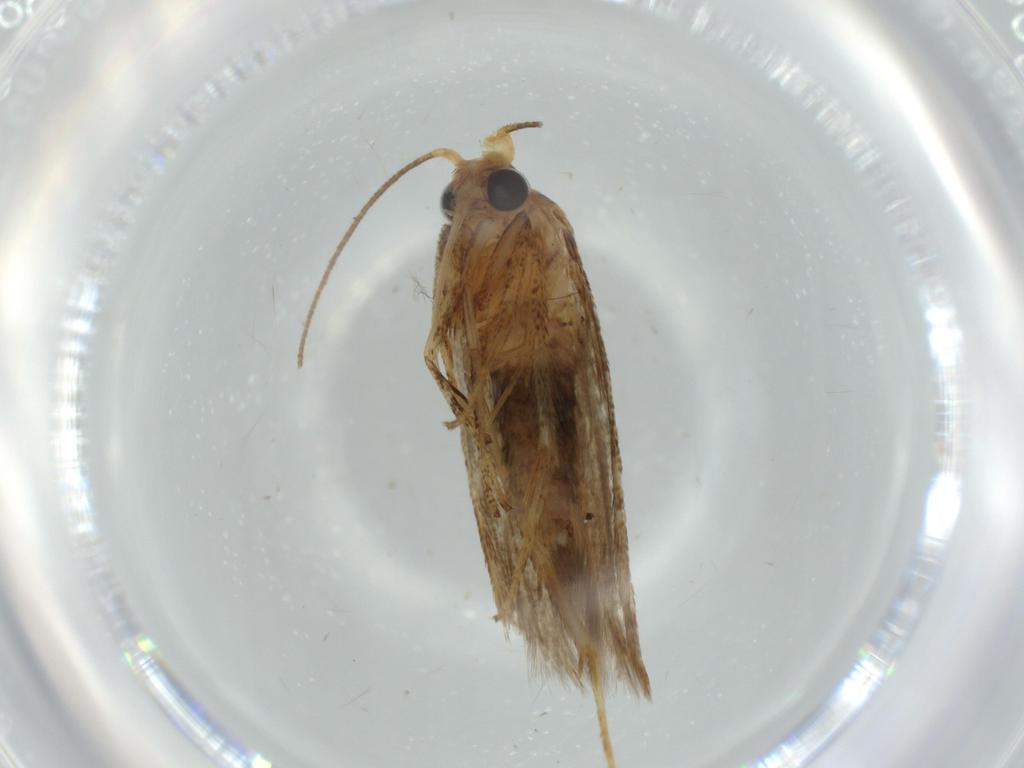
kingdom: Animalia
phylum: Arthropoda
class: Insecta
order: Lepidoptera
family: Blastobasidae
